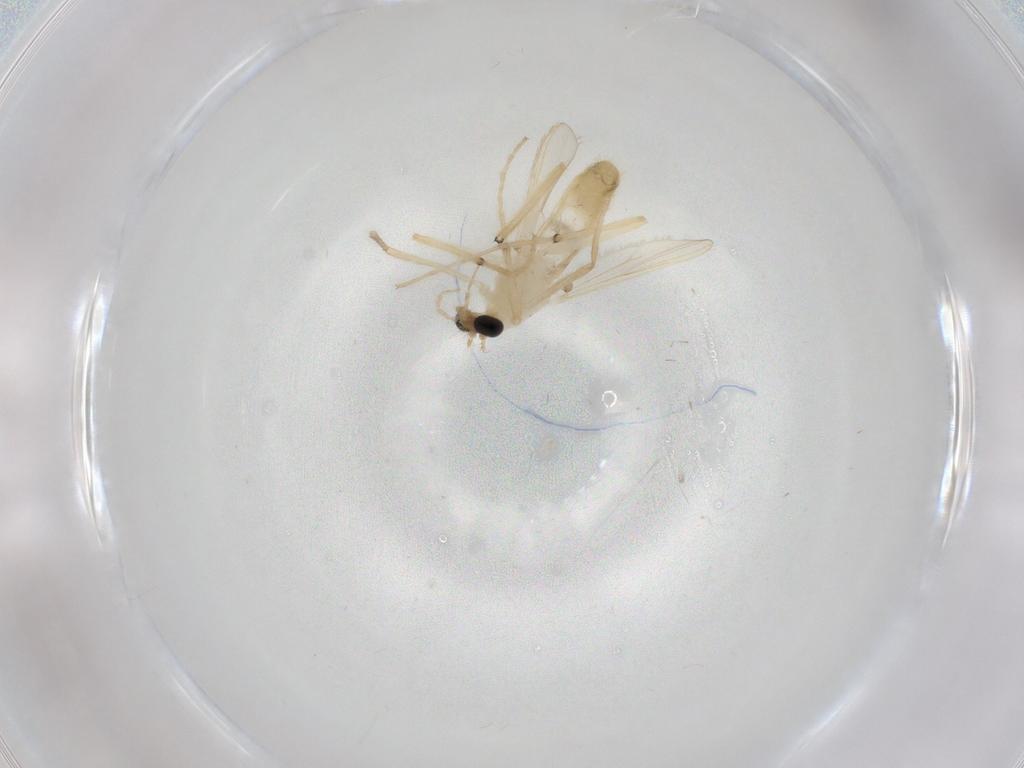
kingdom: Animalia
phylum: Arthropoda
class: Insecta
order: Diptera
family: Chironomidae
